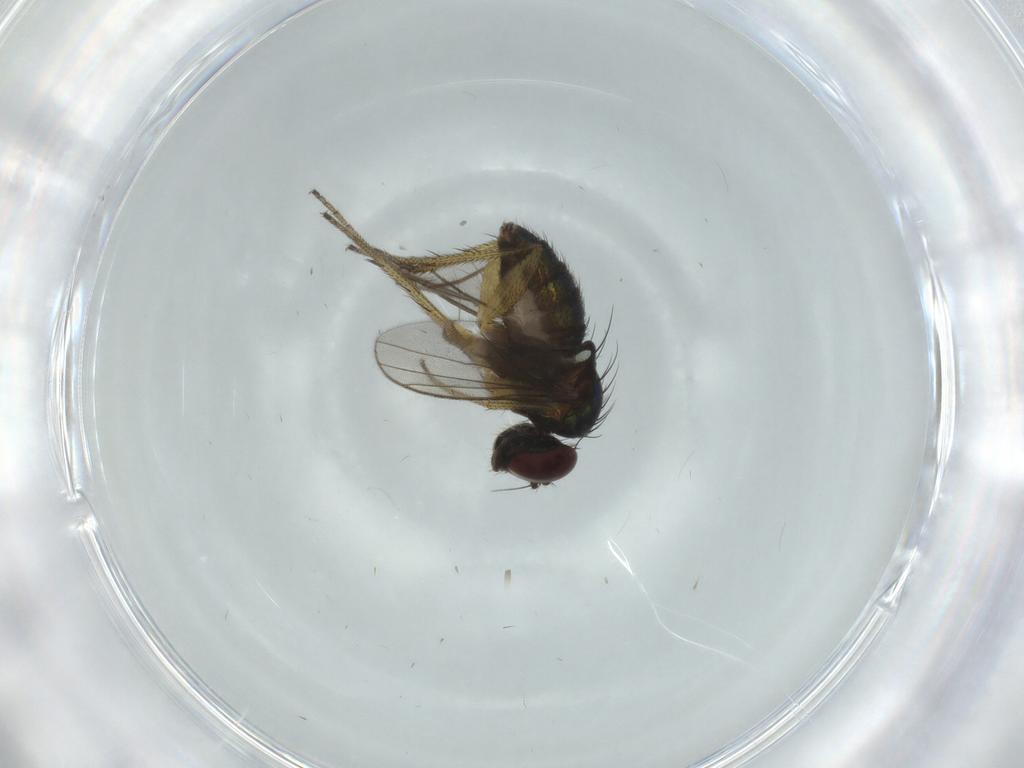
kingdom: Animalia
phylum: Arthropoda
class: Insecta
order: Diptera
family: Dolichopodidae
